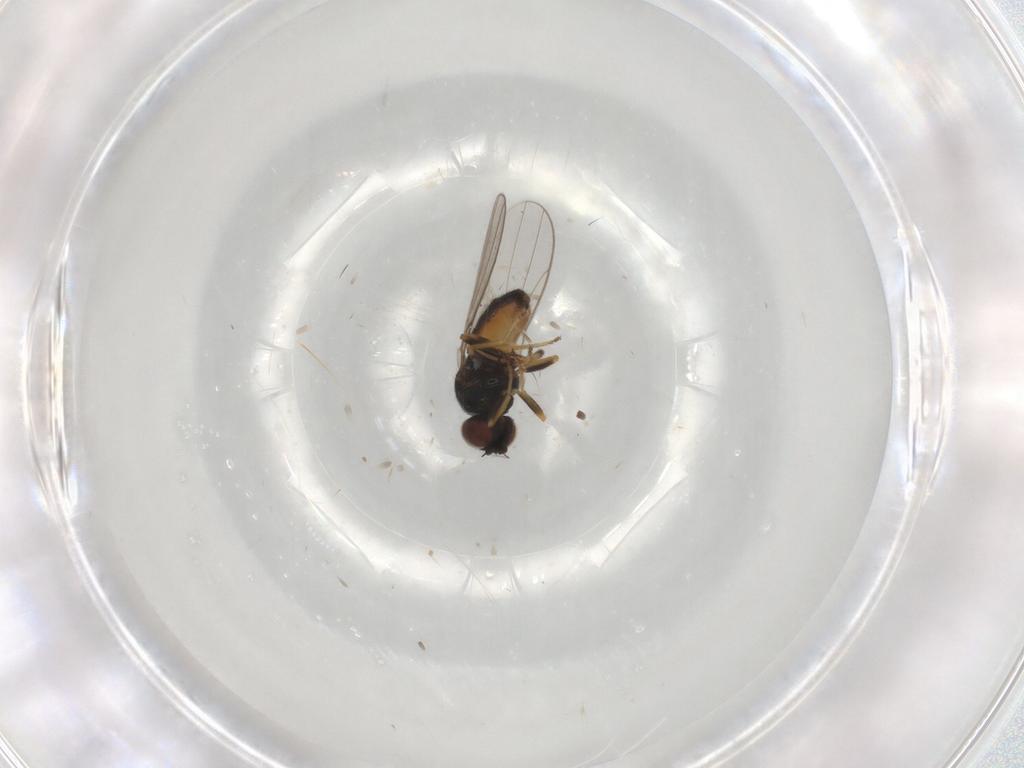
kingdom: Animalia
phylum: Arthropoda
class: Insecta
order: Diptera
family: Chloropidae
